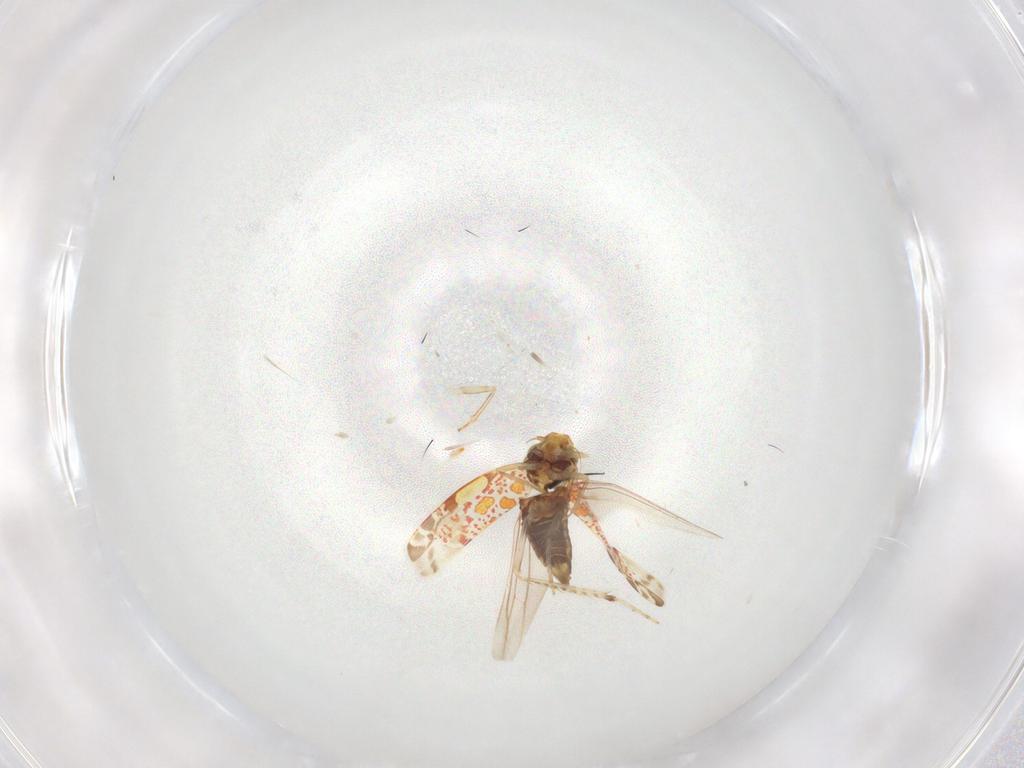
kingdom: Animalia
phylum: Arthropoda
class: Insecta
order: Hemiptera
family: Cicadellidae
